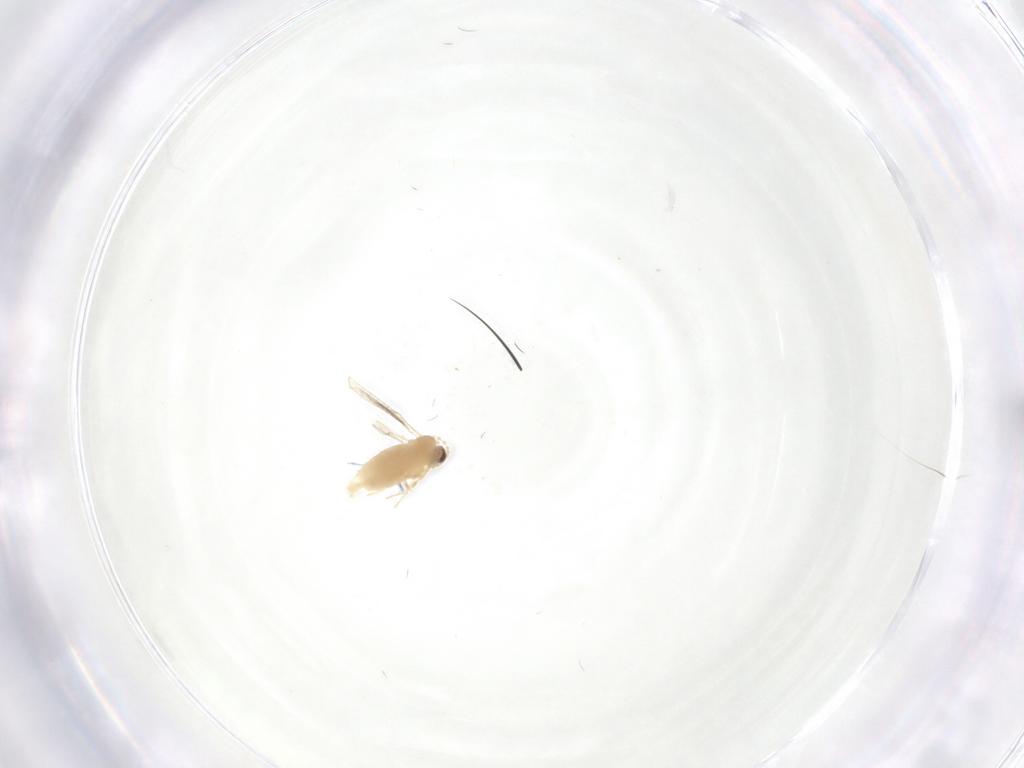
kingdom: Animalia
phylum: Arthropoda
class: Insecta
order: Diptera
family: Cecidomyiidae
